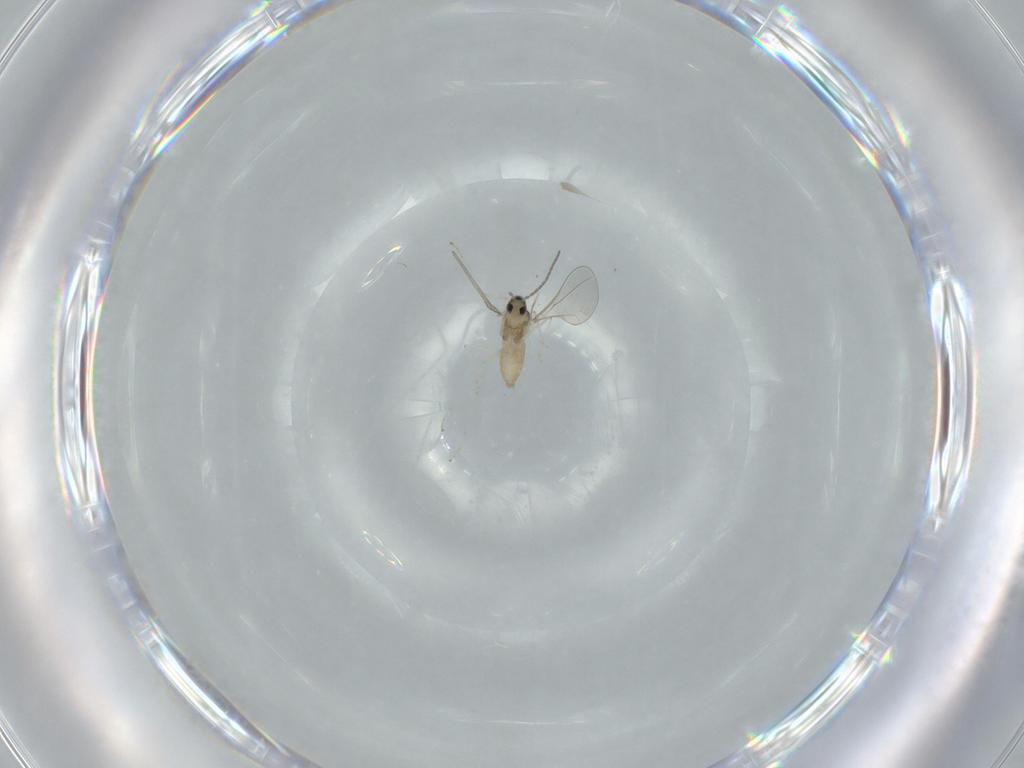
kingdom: Animalia
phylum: Arthropoda
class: Insecta
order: Diptera
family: Cecidomyiidae
